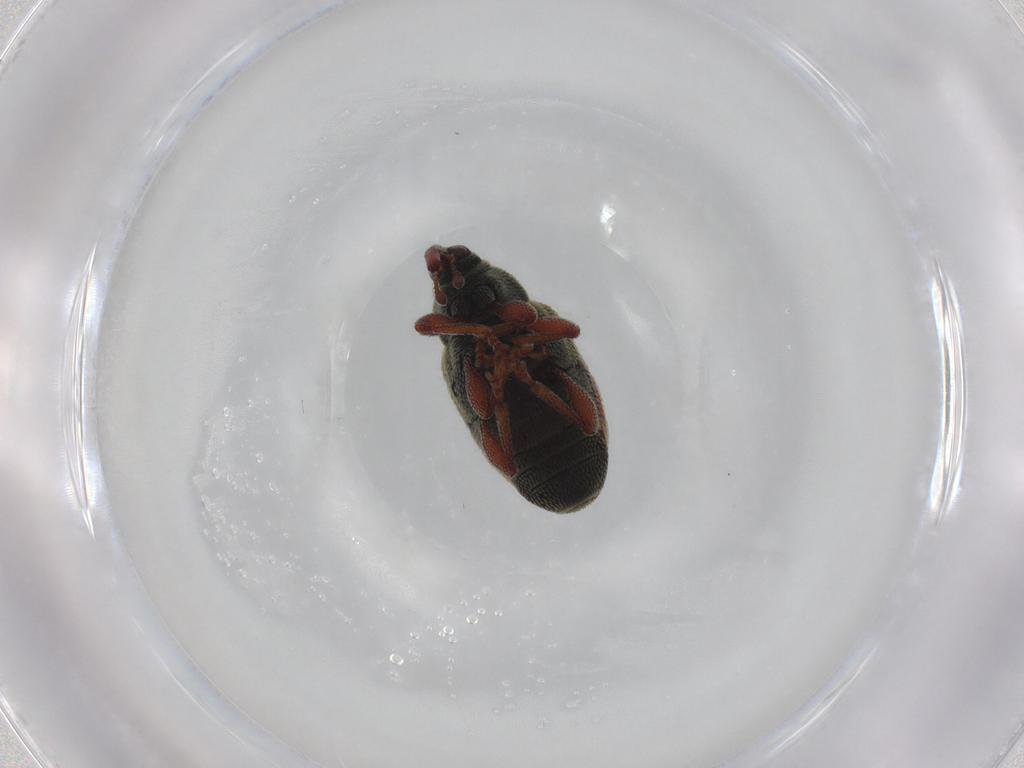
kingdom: Animalia
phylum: Arthropoda
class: Insecta
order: Coleoptera
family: Curculionidae
